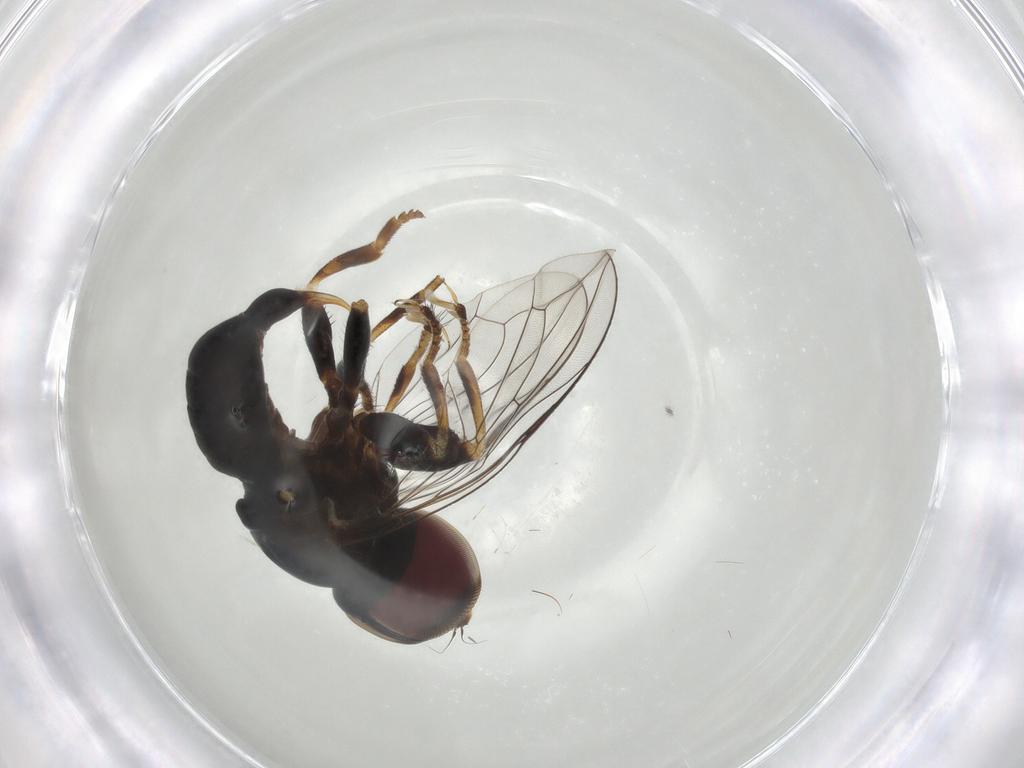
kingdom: Animalia
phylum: Arthropoda
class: Insecta
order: Diptera
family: Pipunculidae
